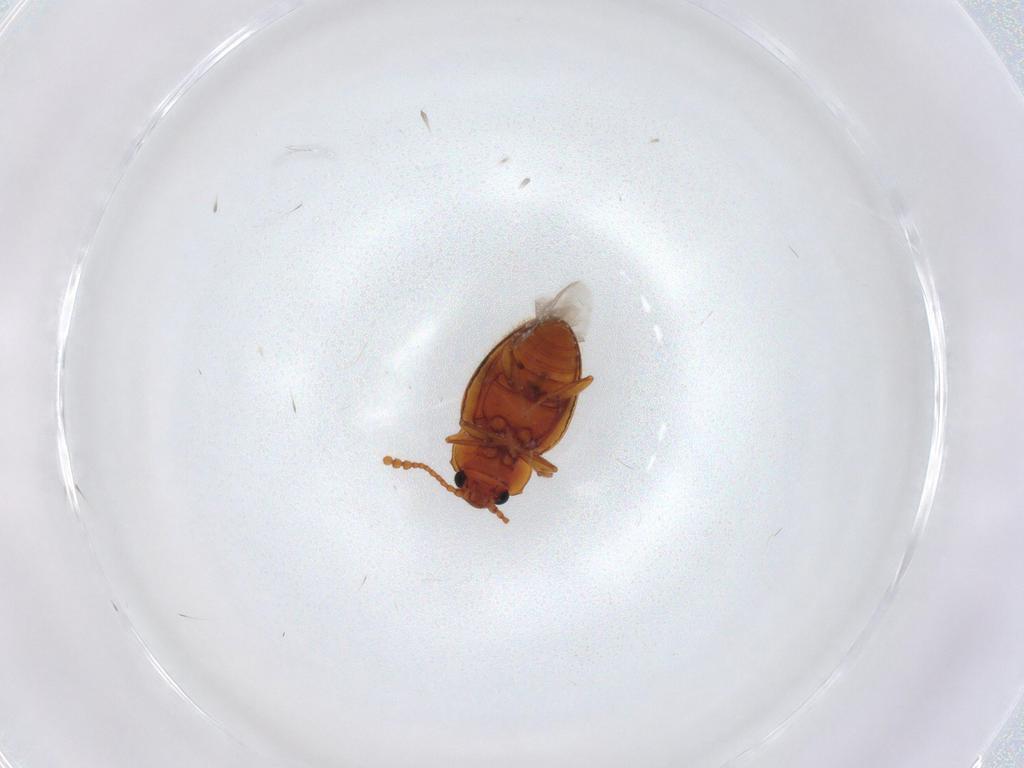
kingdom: Animalia
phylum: Arthropoda
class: Insecta
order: Coleoptera
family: Erotylidae
